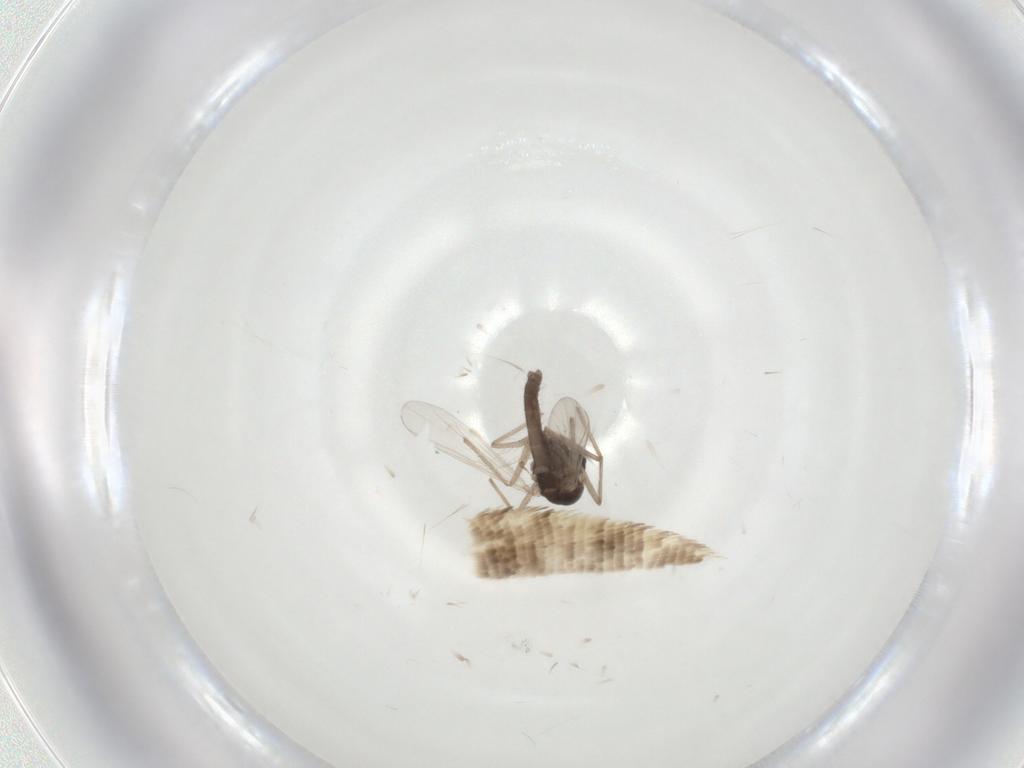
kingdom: Animalia
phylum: Arthropoda
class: Insecta
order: Diptera
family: Chironomidae
